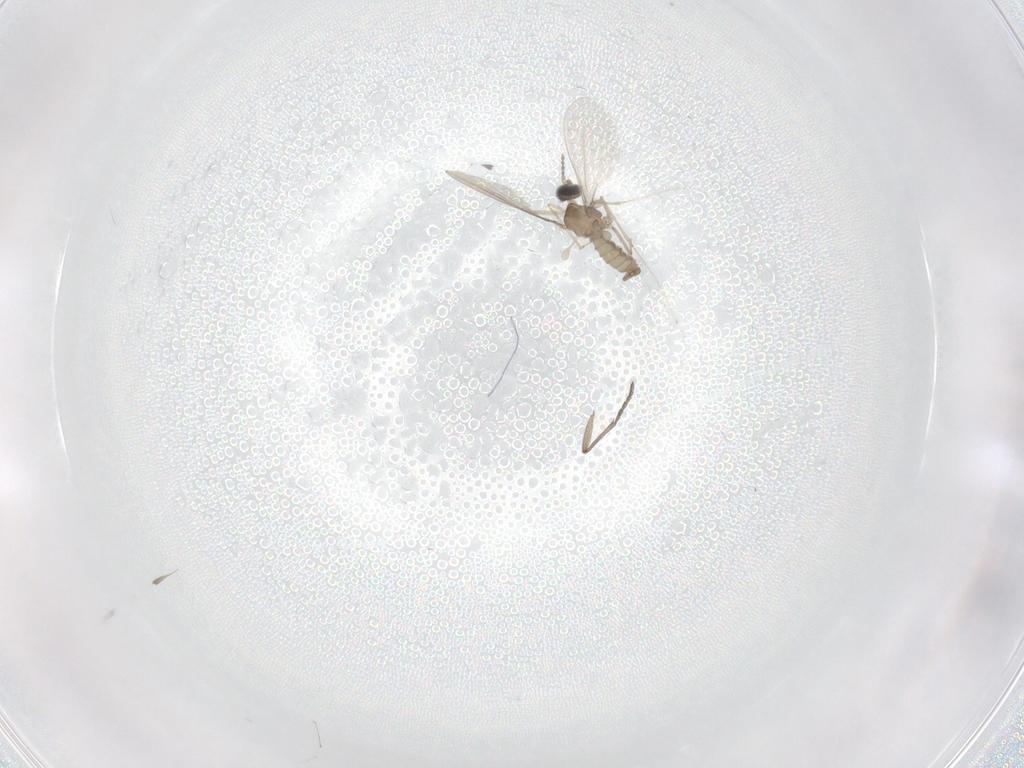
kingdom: Animalia
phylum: Arthropoda
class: Insecta
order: Diptera
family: Cecidomyiidae
